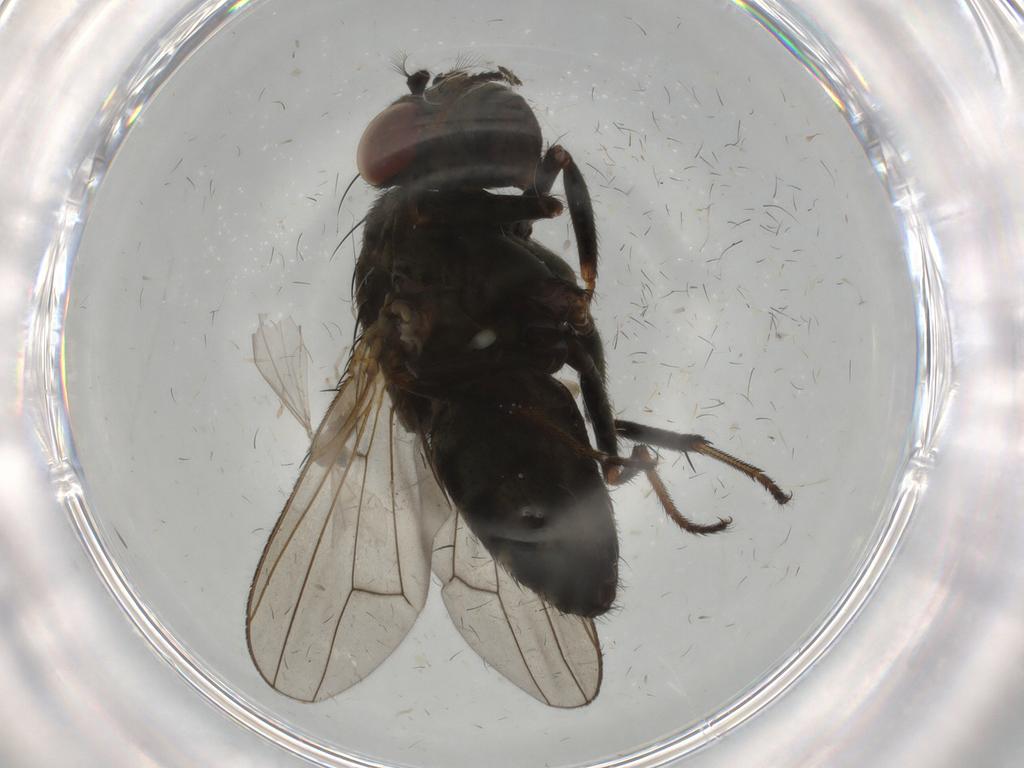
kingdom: Animalia
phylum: Arthropoda
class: Insecta
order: Diptera
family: Ephydridae
